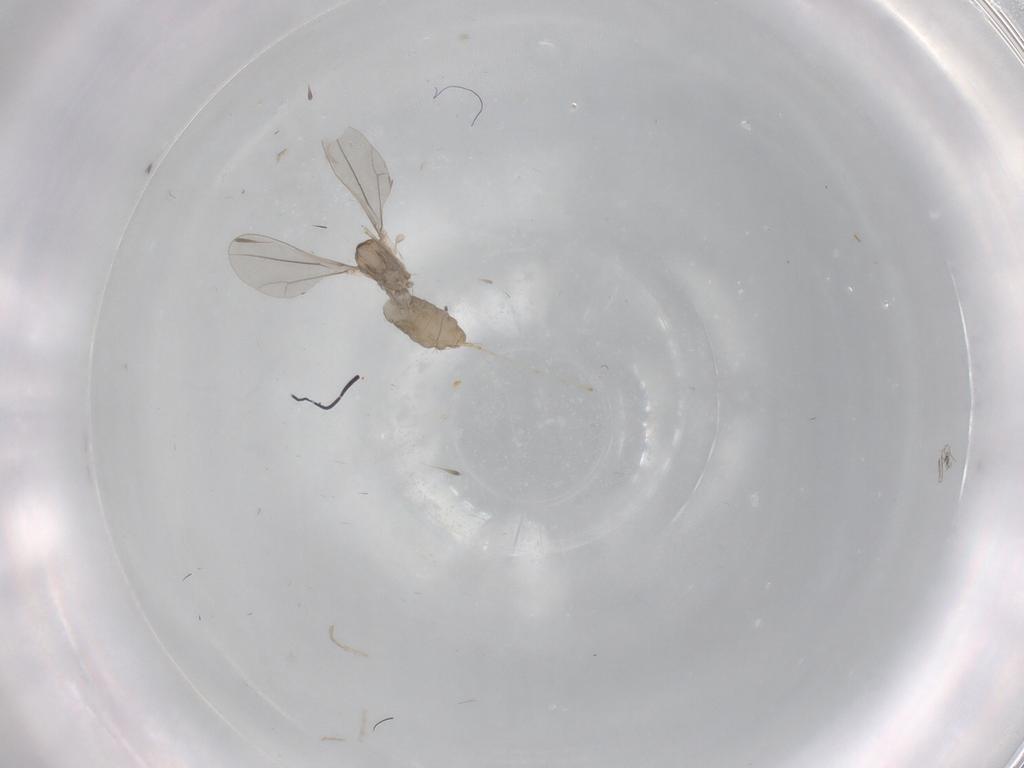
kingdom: Animalia
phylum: Arthropoda
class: Insecta
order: Diptera
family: Cecidomyiidae
